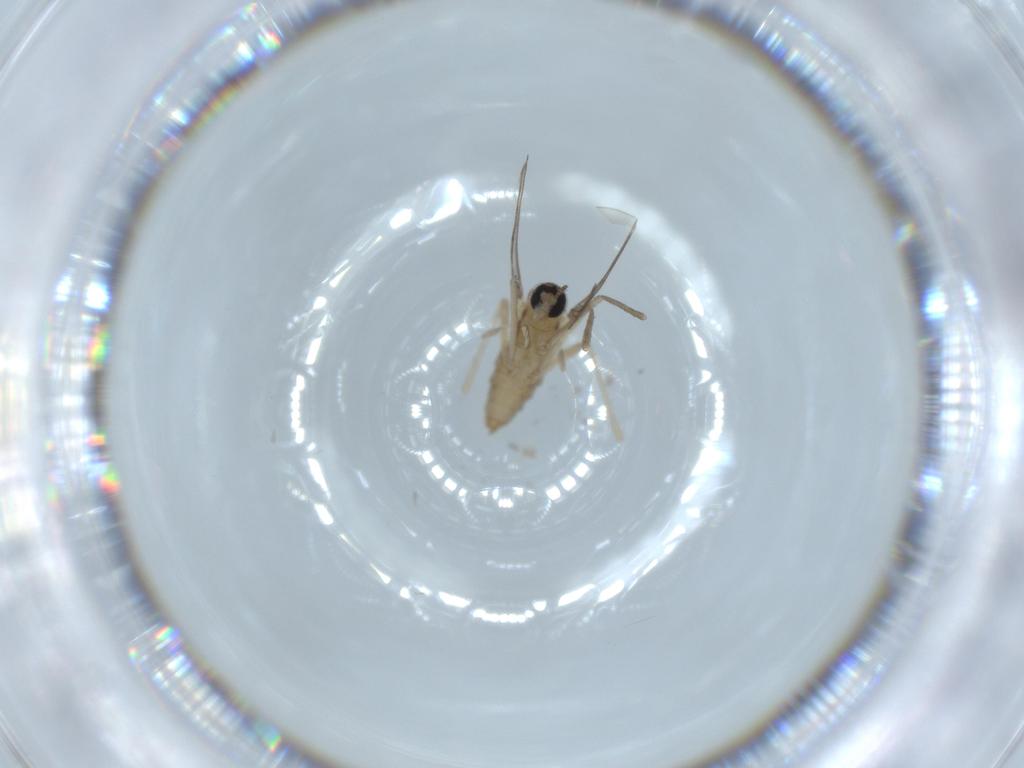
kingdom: Animalia
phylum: Arthropoda
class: Insecta
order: Diptera
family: Cecidomyiidae
